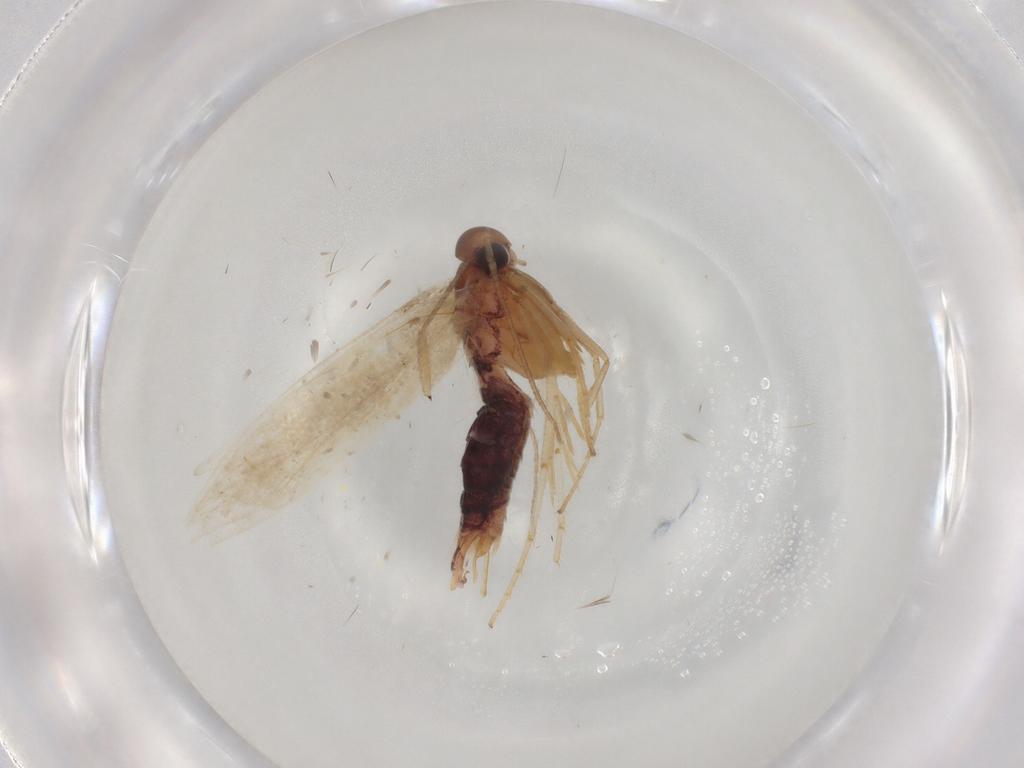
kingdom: Animalia
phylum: Arthropoda
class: Insecta
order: Lepidoptera
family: Gelechiidae
